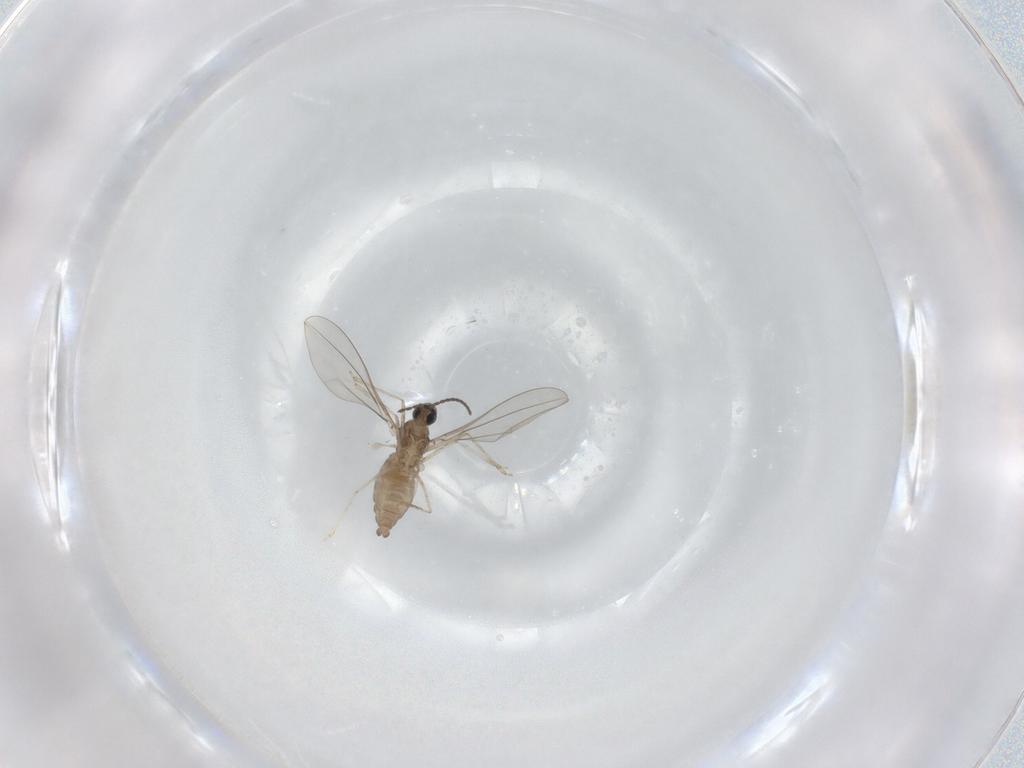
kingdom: Animalia
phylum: Arthropoda
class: Insecta
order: Diptera
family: Cecidomyiidae
